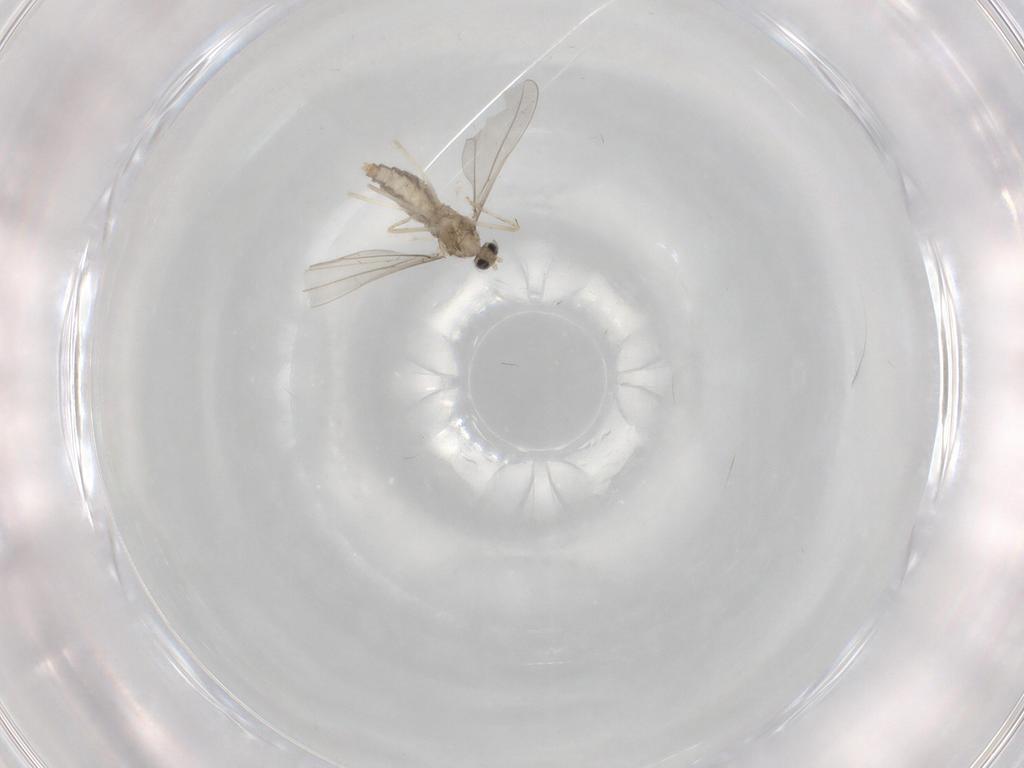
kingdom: Animalia
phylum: Arthropoda
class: Insecta
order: Diptera
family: Cecidomyiidae
